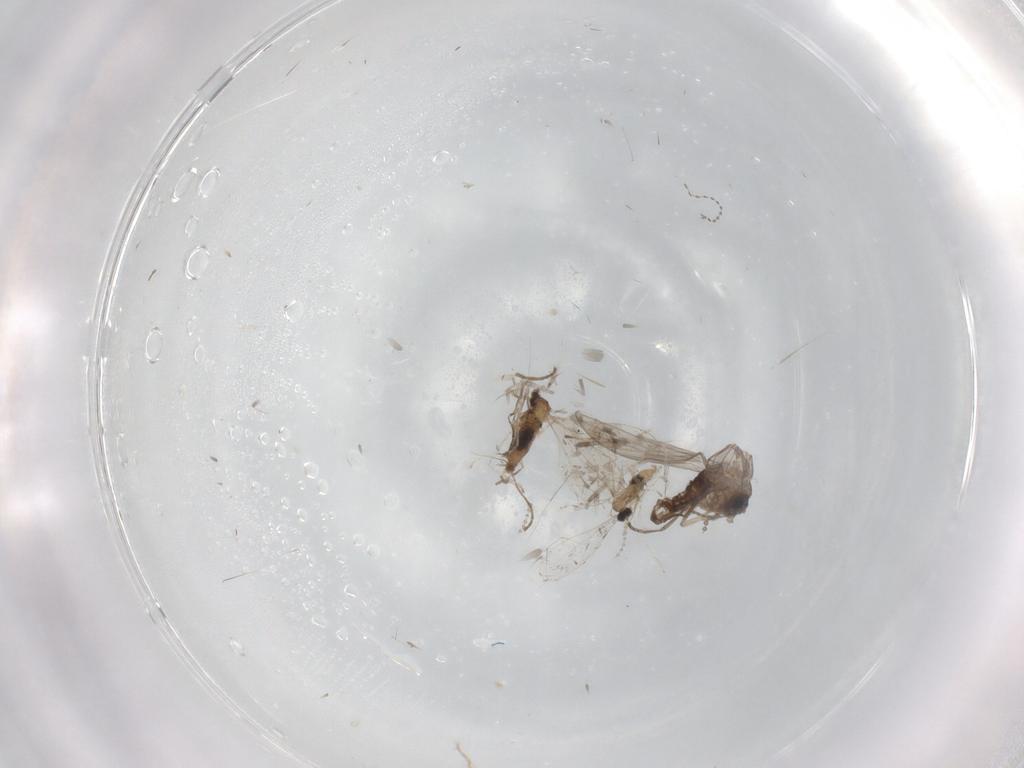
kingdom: Animalia
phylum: Arthropoda
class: Insecta
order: Diptera
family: Psychodidae
